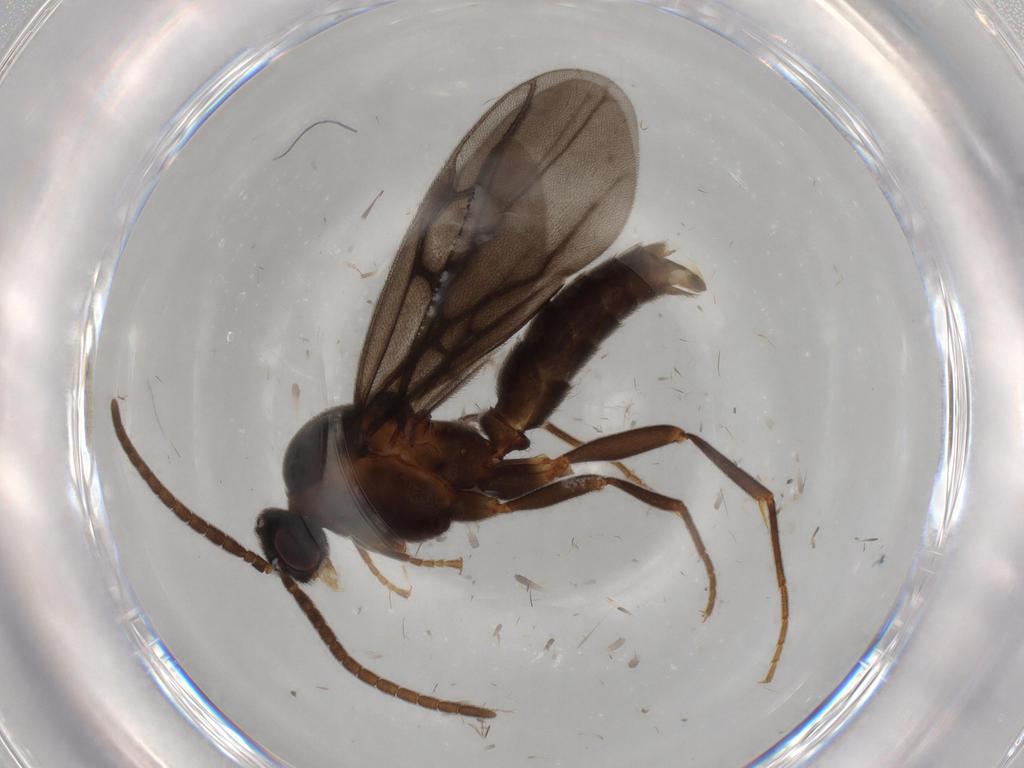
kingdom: Animalia
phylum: Arthropoda
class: Insecta
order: Hymenoptera
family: Formicidae
